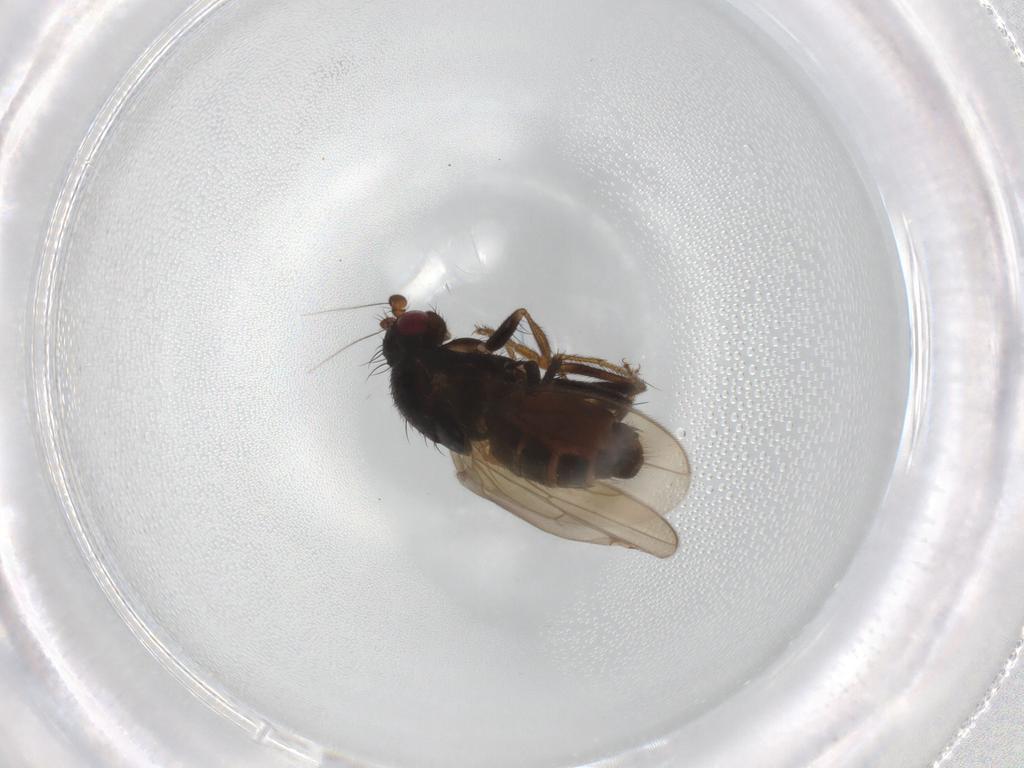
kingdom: Animalia
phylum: Arthropoda
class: Insecta
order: Diptera
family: Sphaeroceridae
